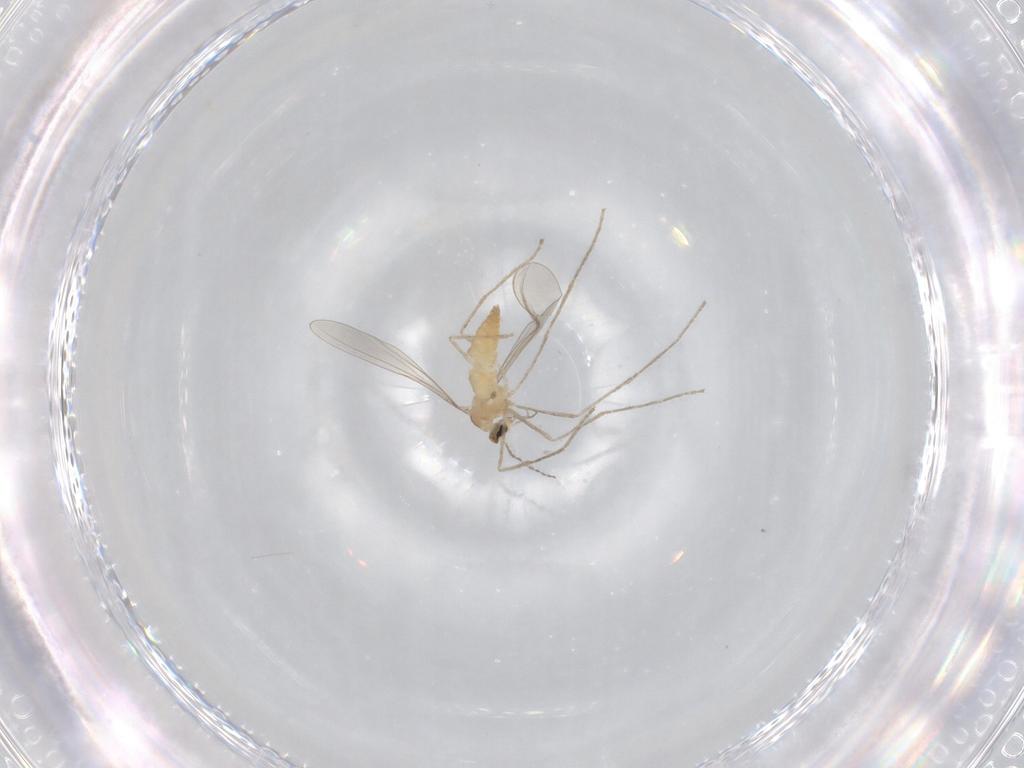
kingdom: Animalia
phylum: Arthropoda
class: Insecta
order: Diptera
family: Cecidomyiidae
